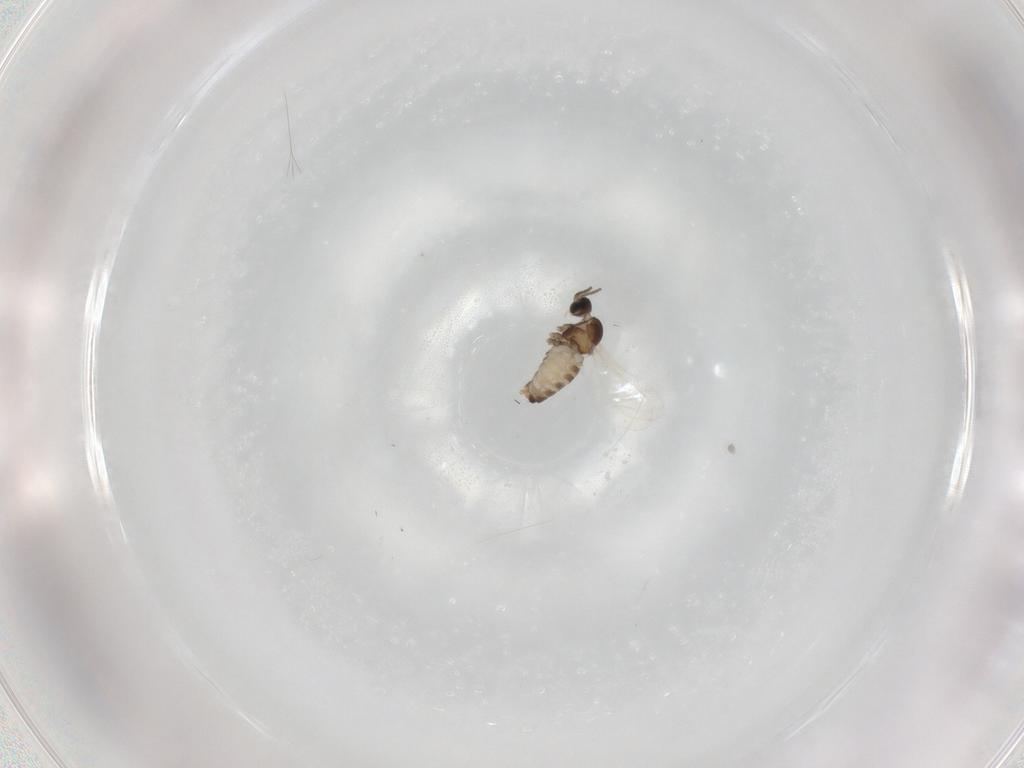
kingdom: Animalia
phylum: Arthropoda
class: Insecta
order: Diptera
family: Cecidomyiidae
